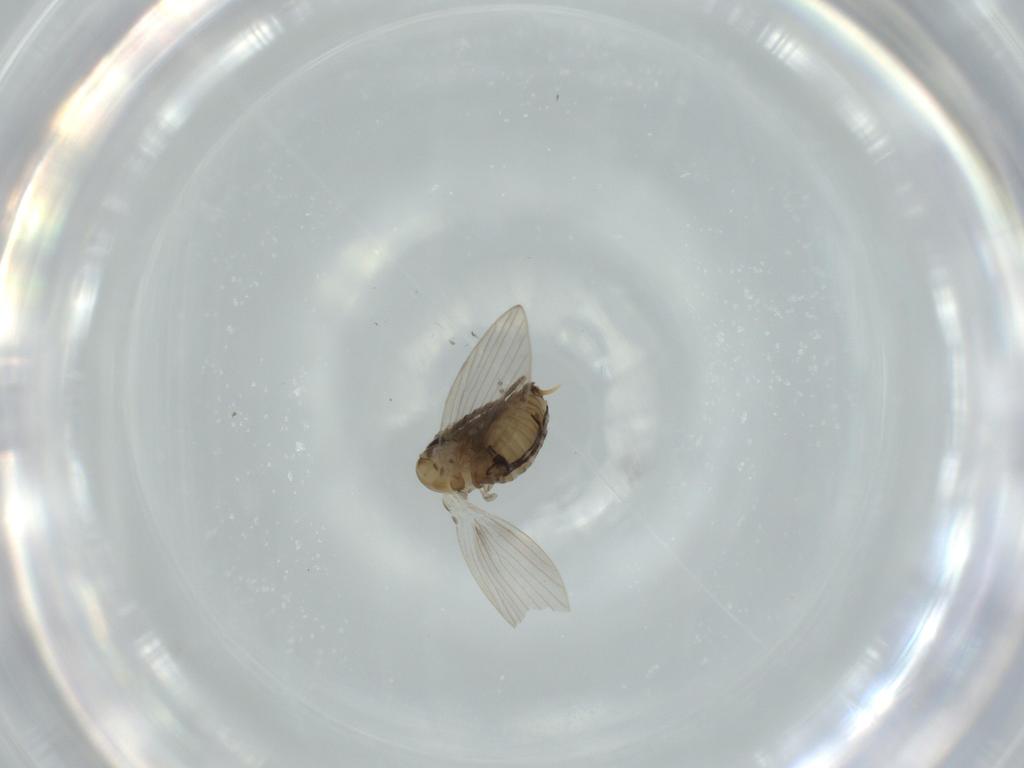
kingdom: Animalia
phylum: Arthropoda
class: Insecta
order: Diptera
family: Psychodidae
